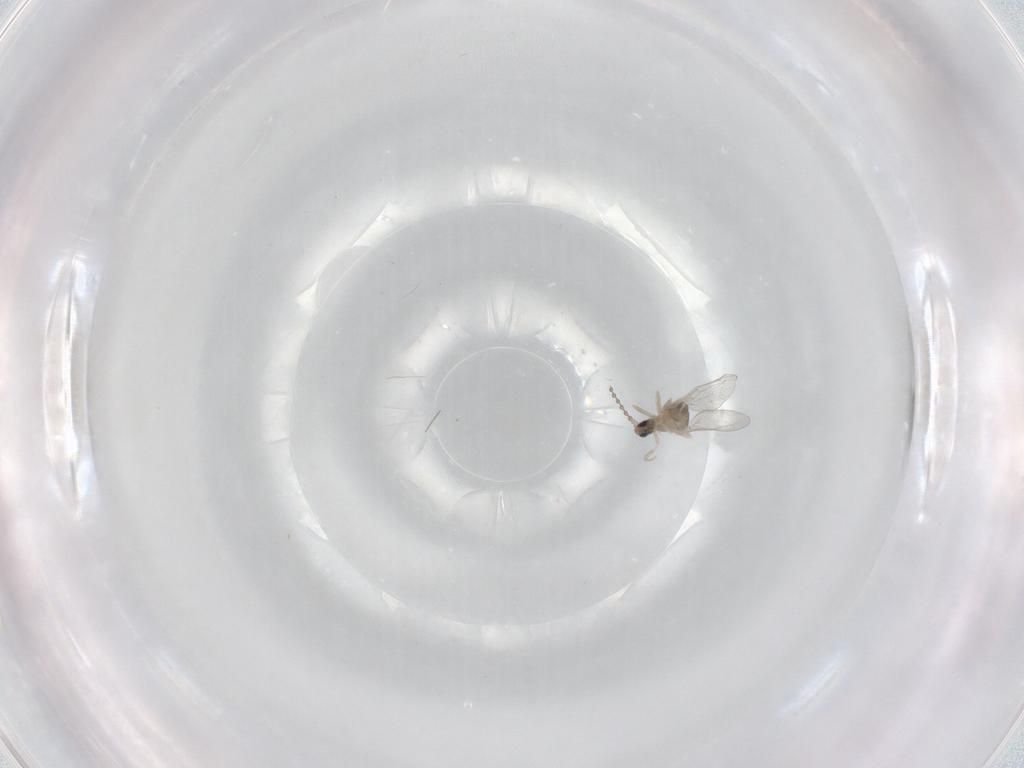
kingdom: Animalia
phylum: Arthropoda
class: Insecta
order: Diptera
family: Cecidomyiidae
